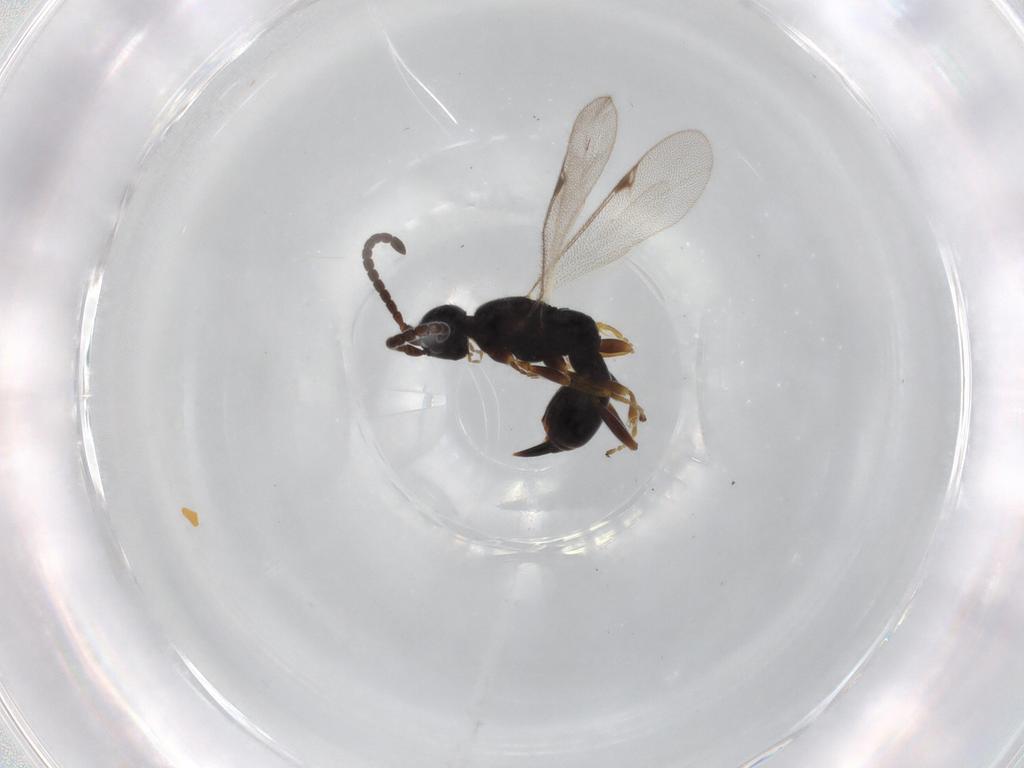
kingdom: Animalia
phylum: Arthropoda
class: Insecta
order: Hymenoptera
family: Proctotrupidae
